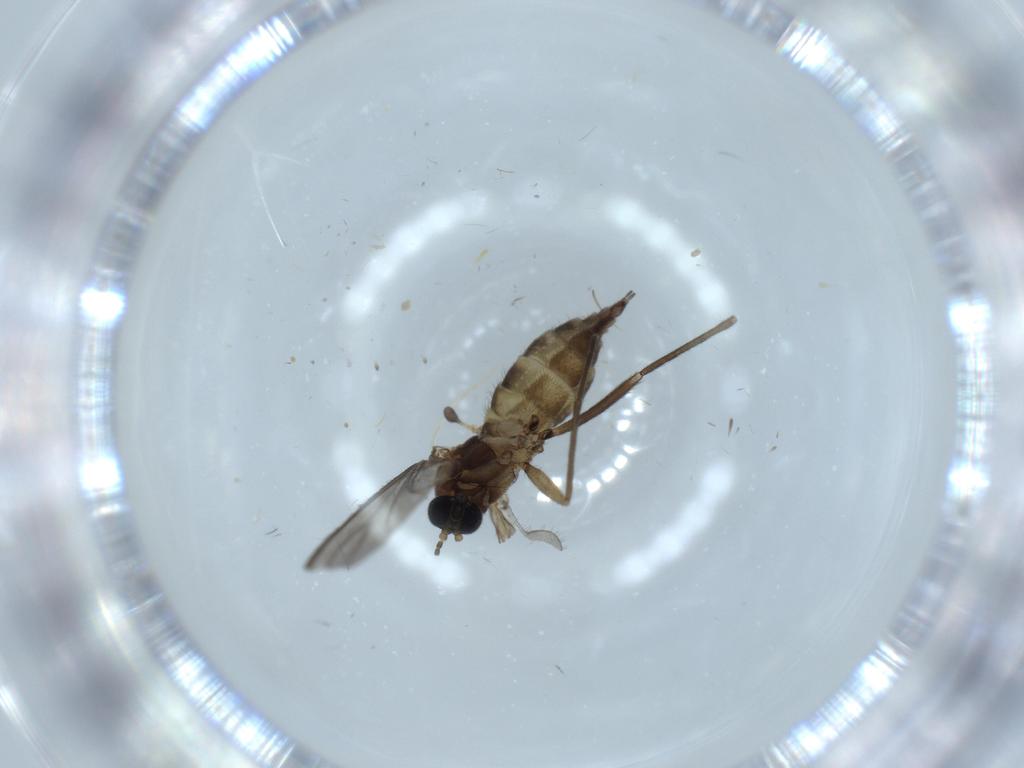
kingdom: Animalia
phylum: Arthropoda
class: Insecta
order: Diptera
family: Sciaridae
